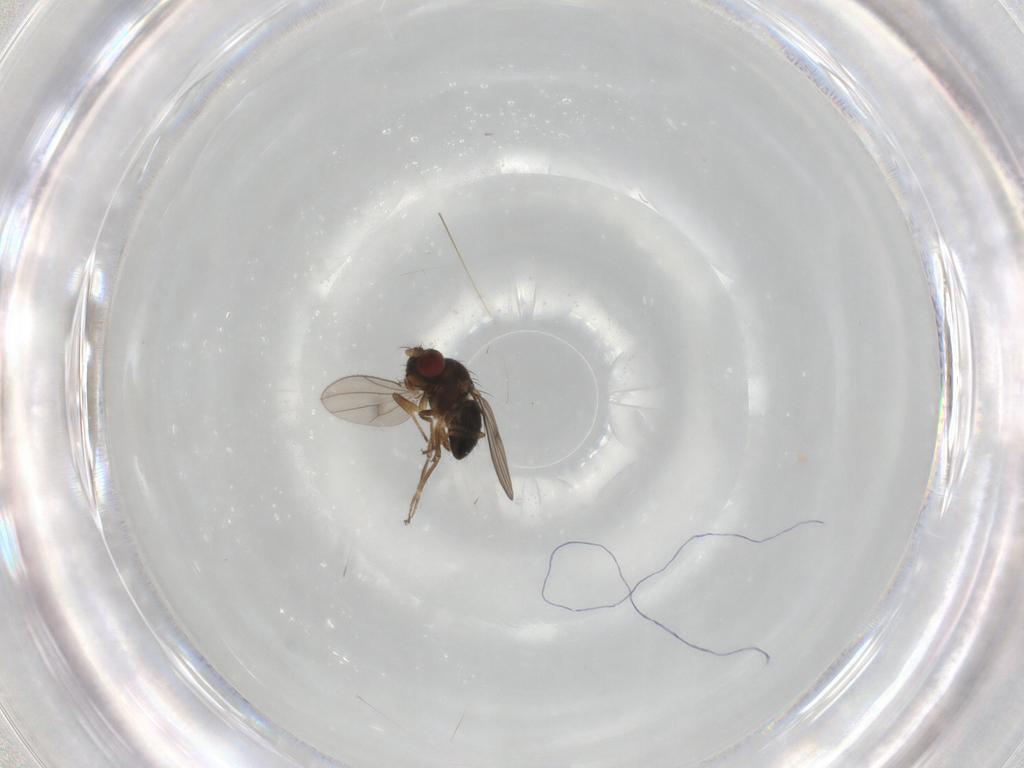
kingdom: Animalia
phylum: Arthropoda
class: Insecta
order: Diptera
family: Ephydridae
